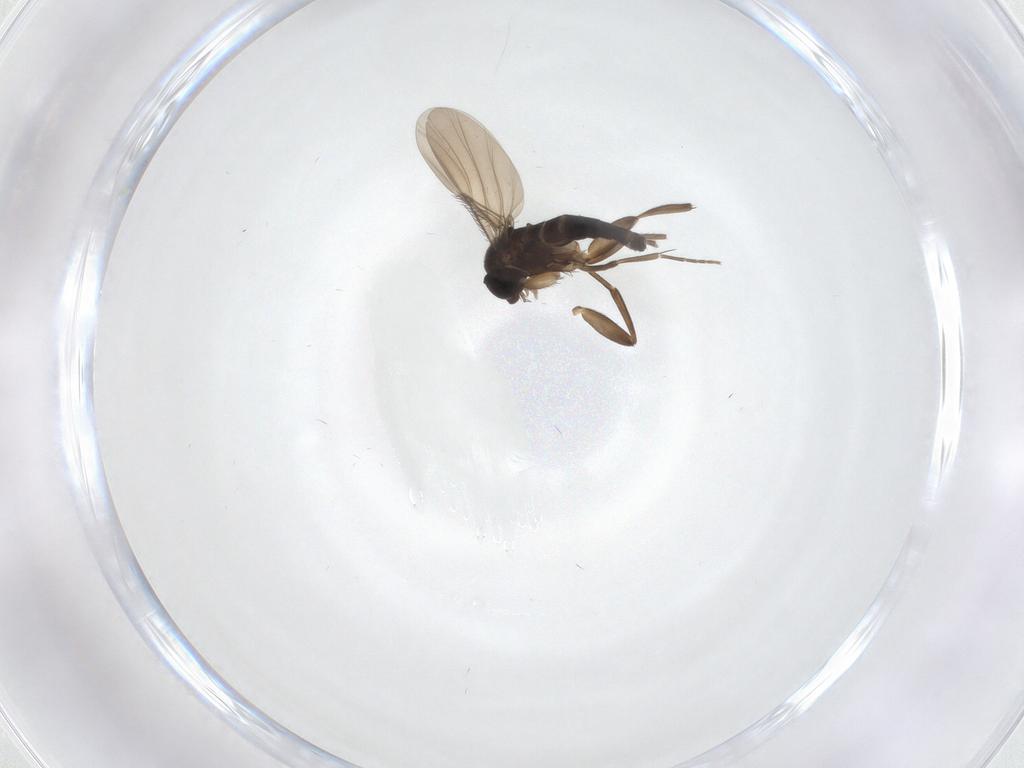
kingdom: Animalia
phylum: Arthropoda
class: Insecta
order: Diptera
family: Phoridae
